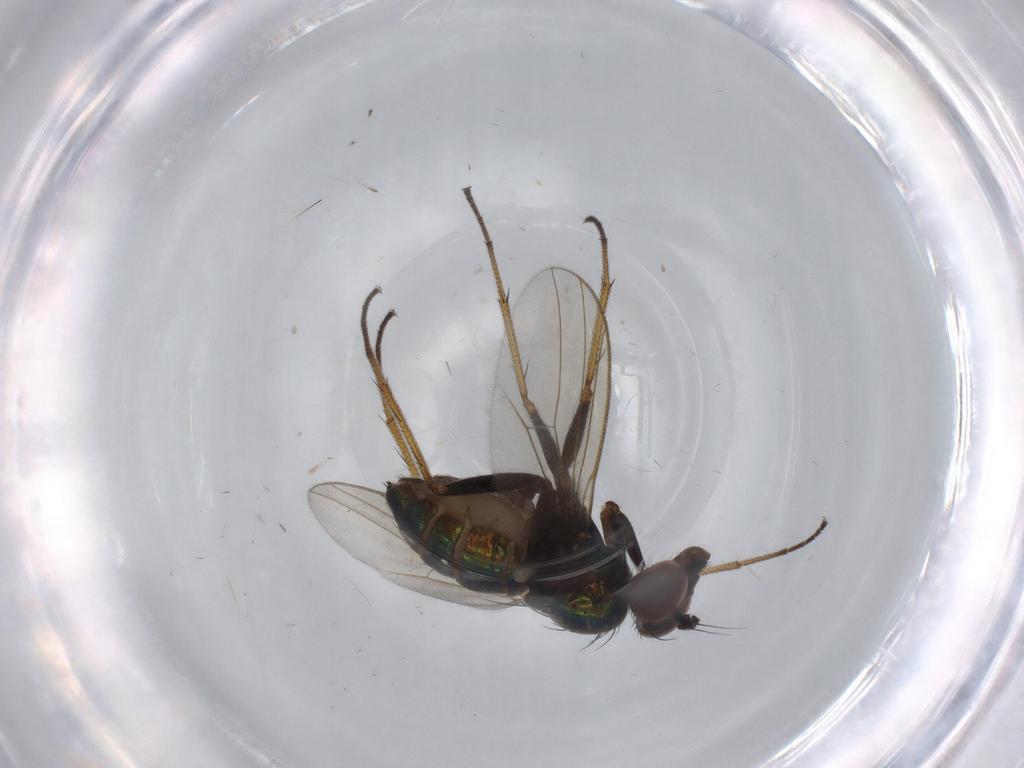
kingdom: Animalia
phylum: Arthropoda
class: Insecta
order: Diptera
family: Dolichopodidae
